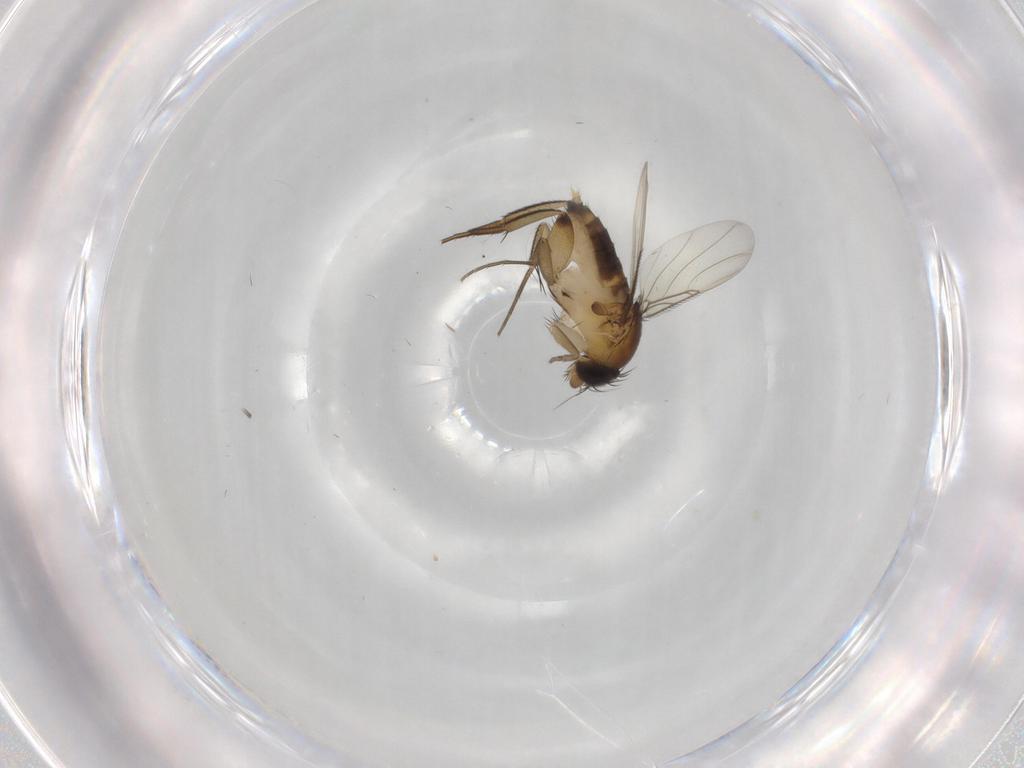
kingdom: Animalia
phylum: Arthropoda
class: Insecta
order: Diptera
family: Phoridae
